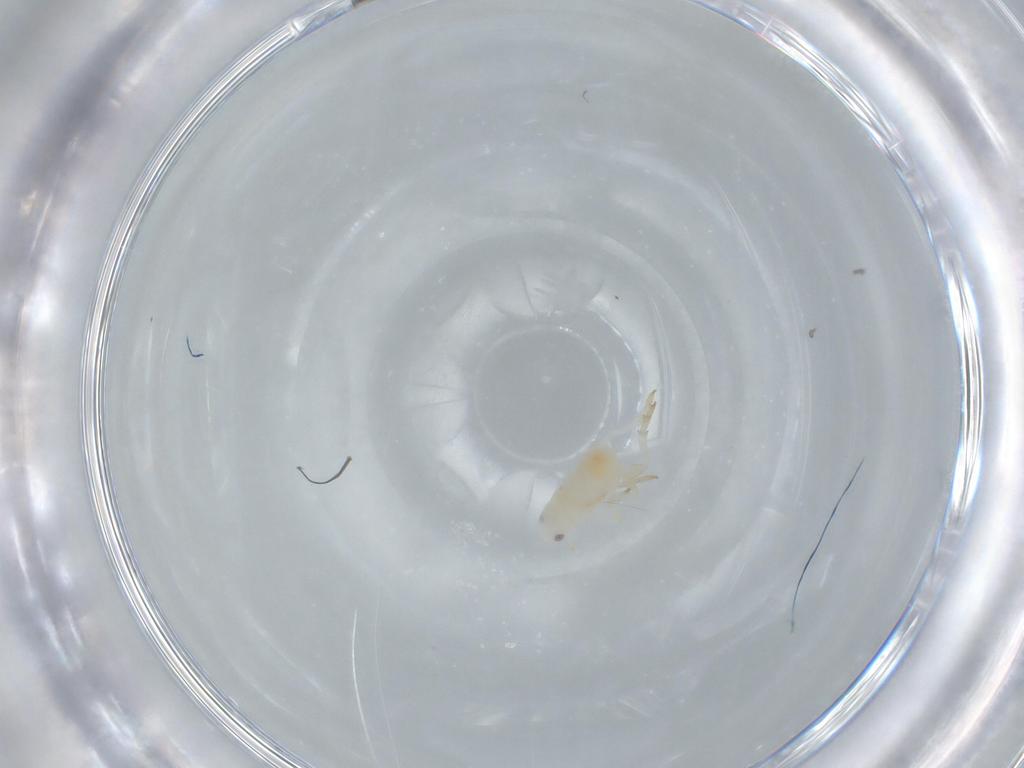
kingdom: Animalia
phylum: Arthropoda
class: Insecta
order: Hemiptera
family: Flatidae
